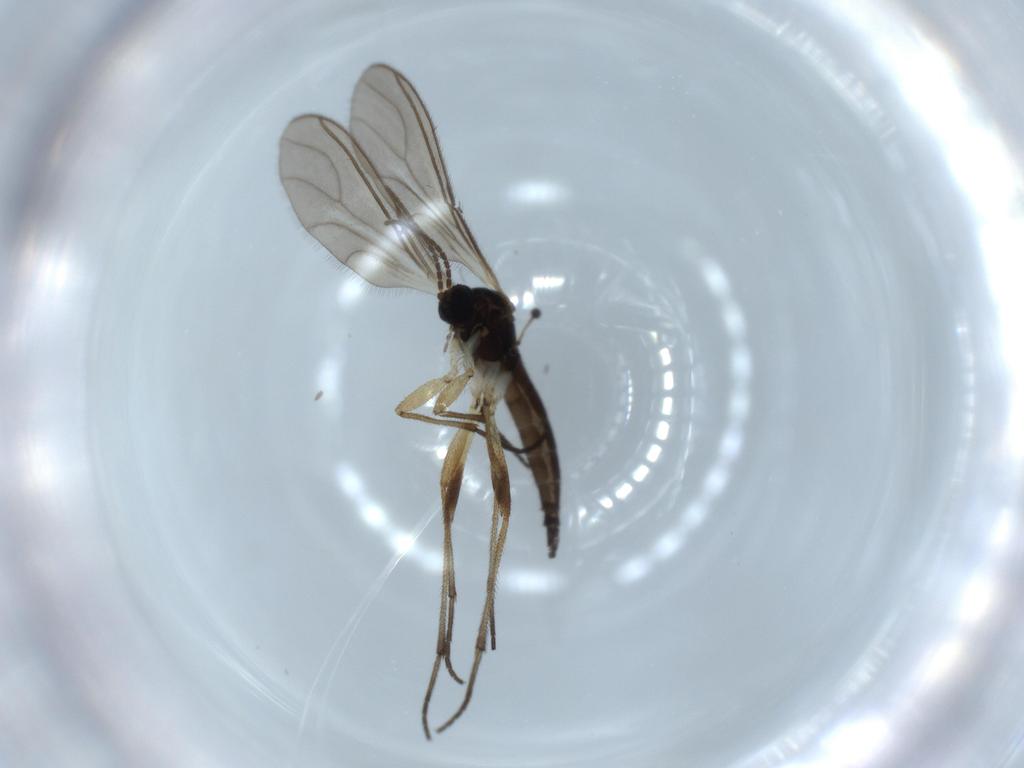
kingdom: Animalia
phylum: Arthropoda
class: Insecta
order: Diptera
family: Sciaridae
